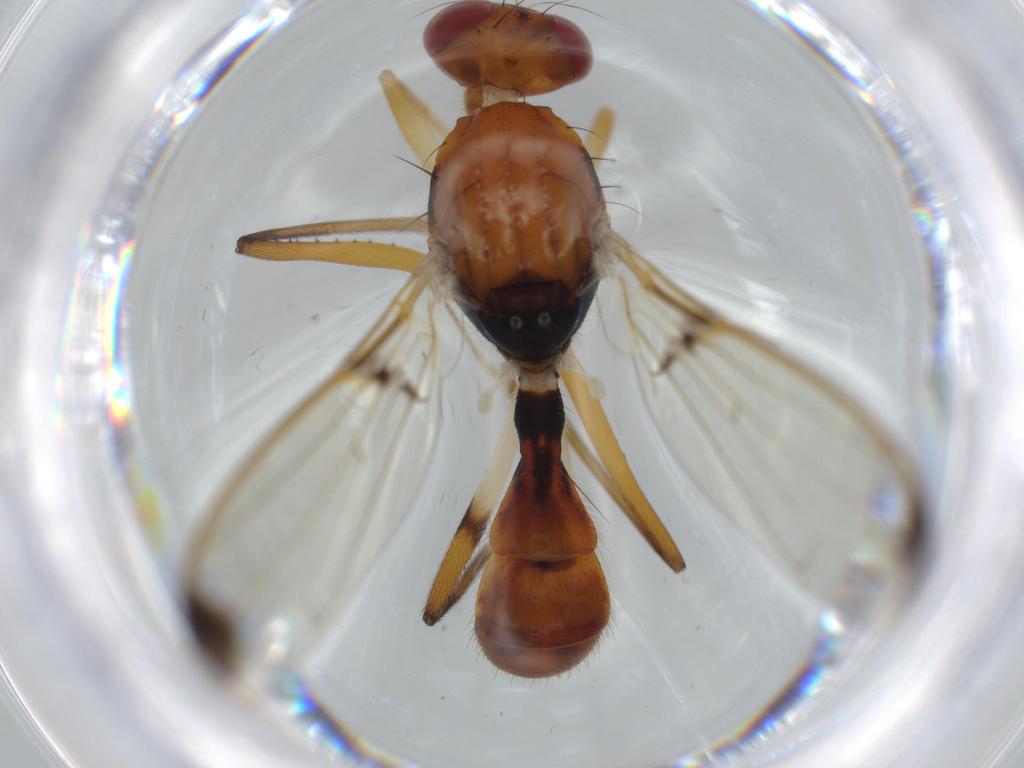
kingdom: Animalia
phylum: Arthropoda
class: Insecta
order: Diptera
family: Richardiidae
